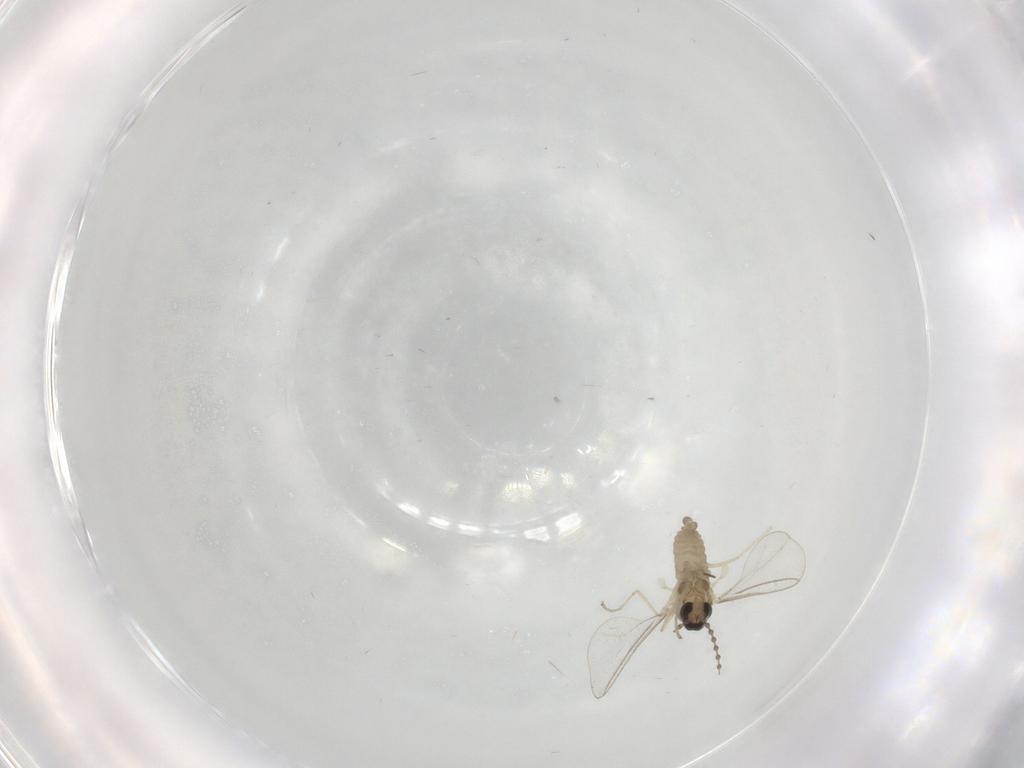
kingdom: Animalia
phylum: Arthropoda
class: Insecta
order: Diptera
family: Cecidomyiidae
